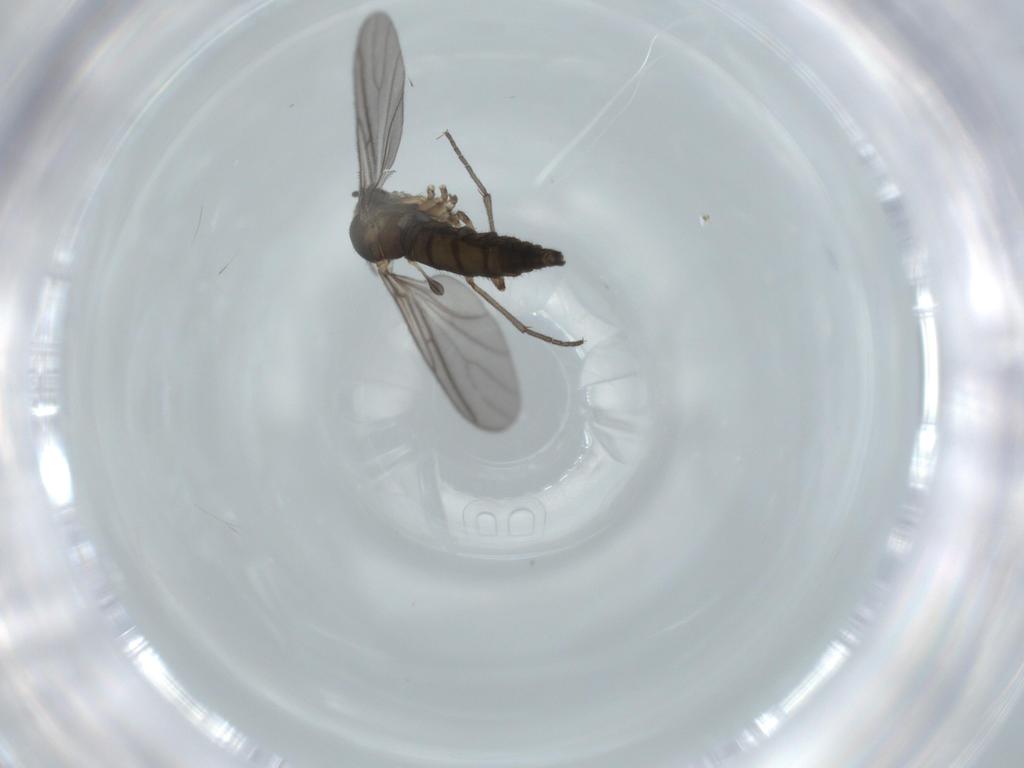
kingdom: Animalia
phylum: Arthropoda
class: Insecta
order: Diptera
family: Sciaridae
